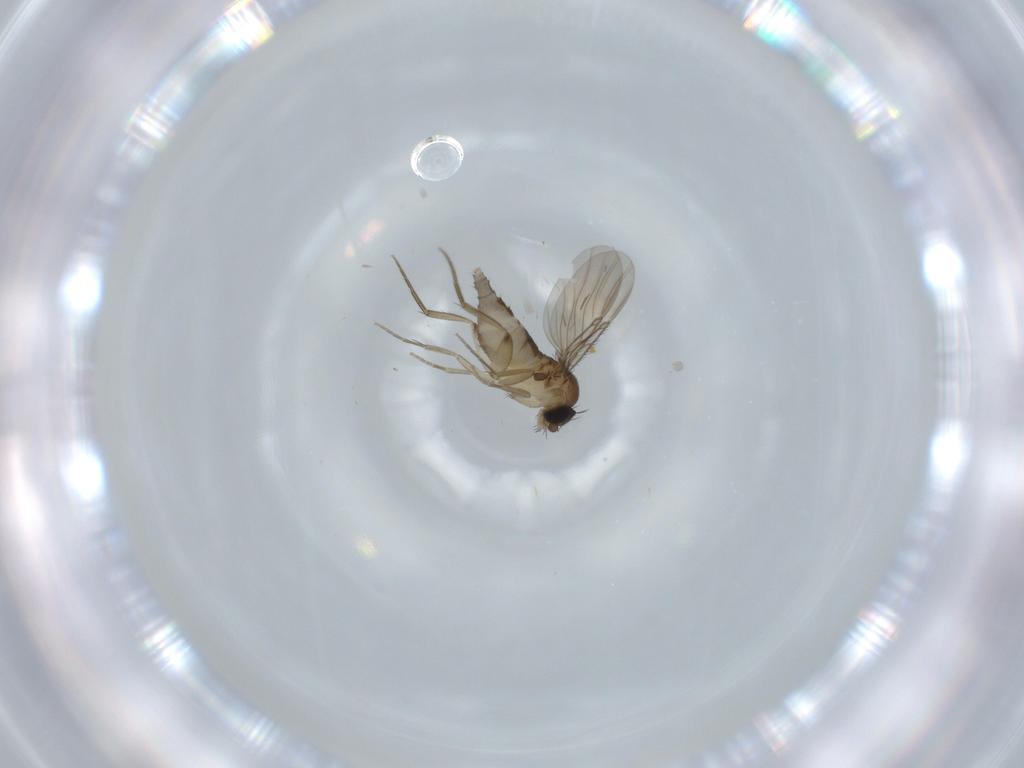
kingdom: Animalia
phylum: Arthropoda
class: Insecta
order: Diptera
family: Phoridae
